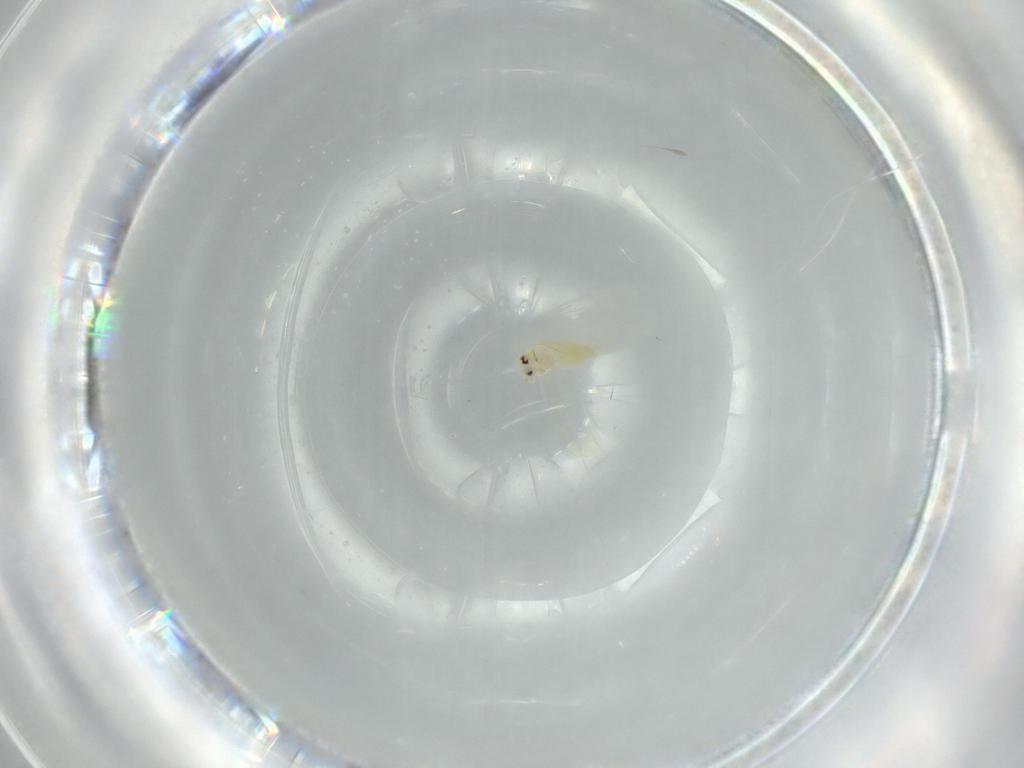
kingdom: Animalia
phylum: Arthropoda
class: Insecta
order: Hemiptera
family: Aleyrodidae
